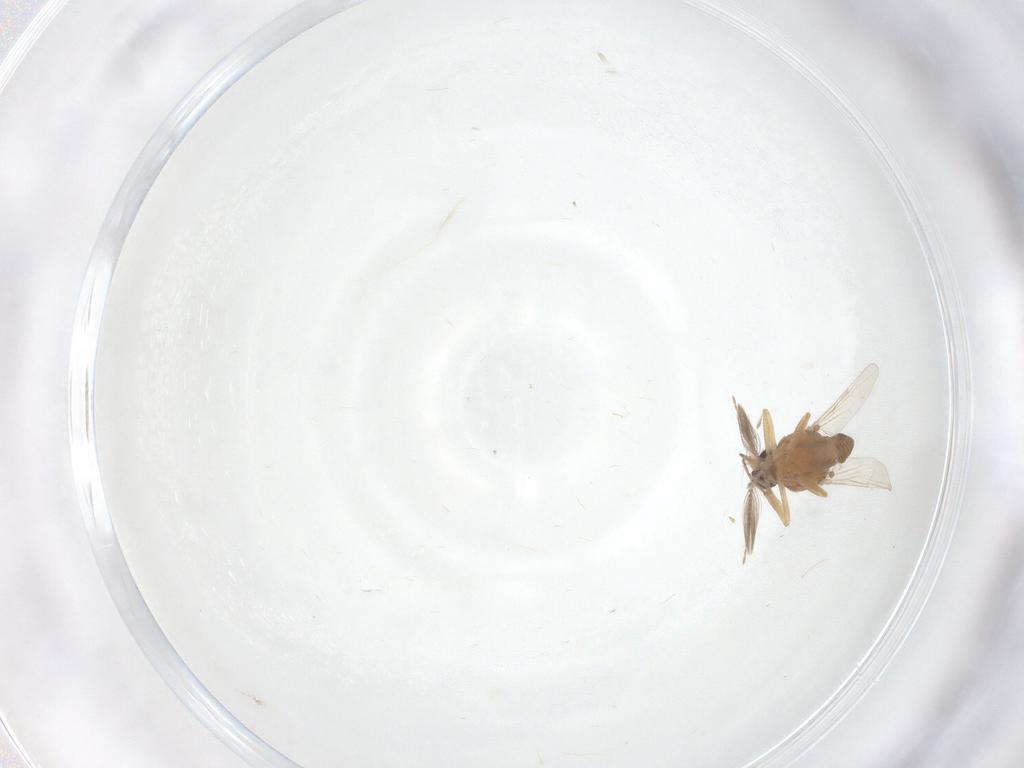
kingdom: Animalia
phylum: Arthropoda
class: Insecta
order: Diptera
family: Ceratopogonidae
